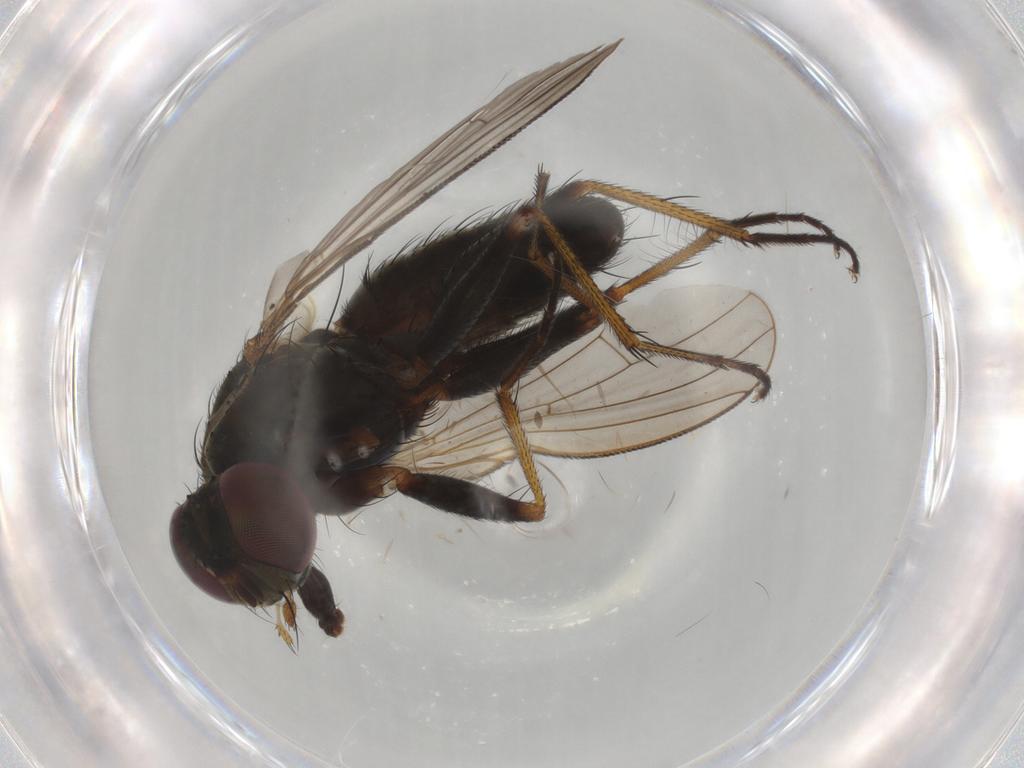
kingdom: Animalia
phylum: Arthropoda
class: Insecta
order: Diptera
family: Muscidae
